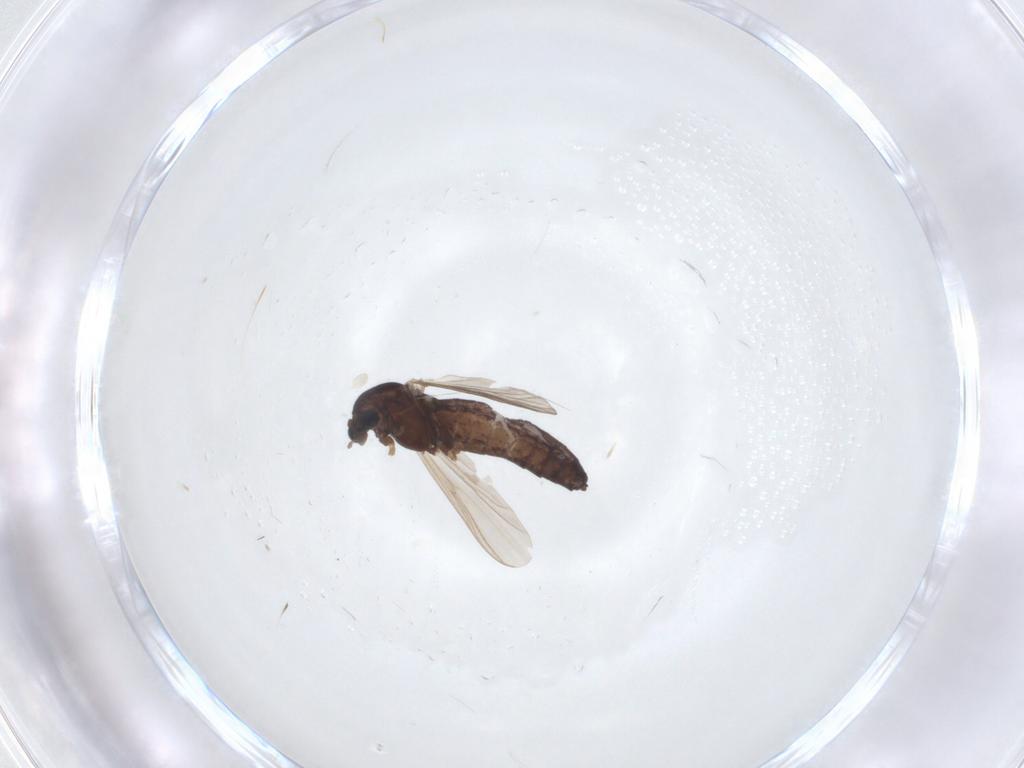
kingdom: Animalia
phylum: Arthropoda
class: Insecta
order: Diptera
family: Chironomidae
